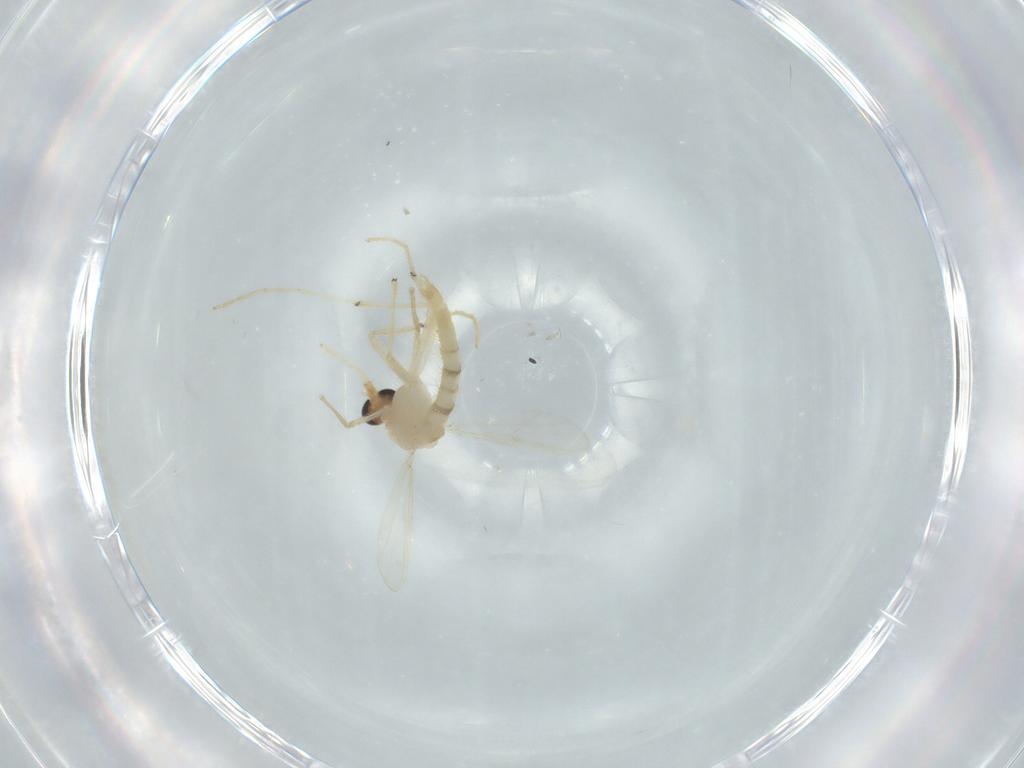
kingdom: Animalia
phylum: Arthropoda
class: Insecta
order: Diptera
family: Chironomidae
